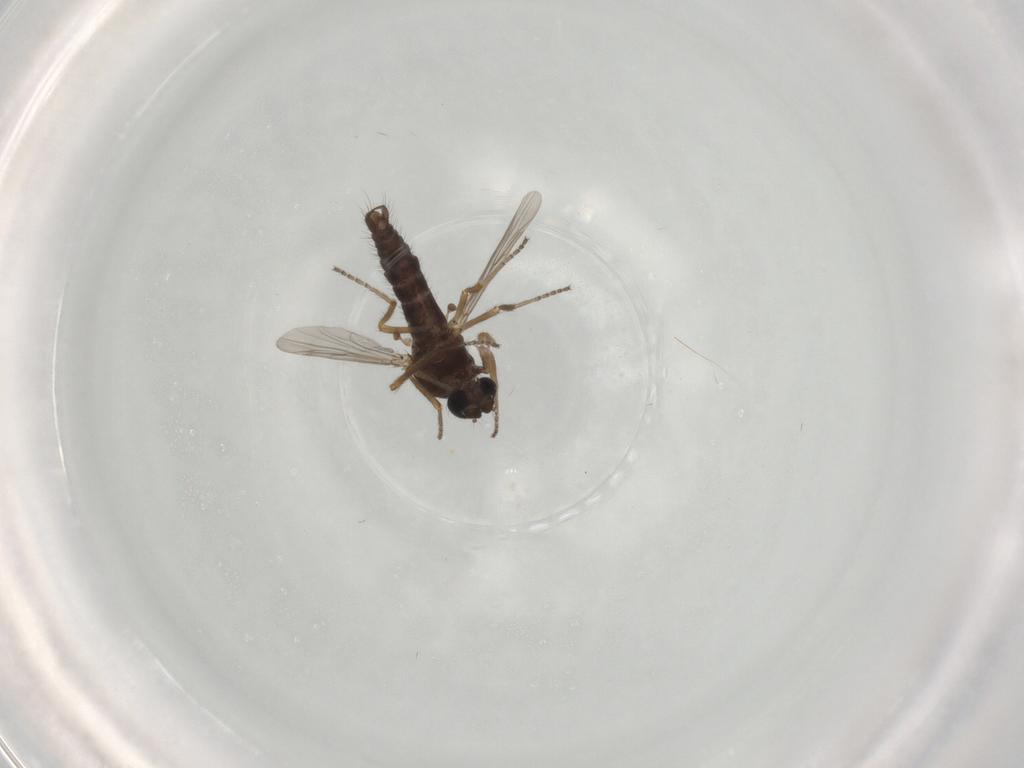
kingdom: Animalia
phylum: Arthropoda
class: Insecta
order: Diptera
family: Ceratopogonidae
